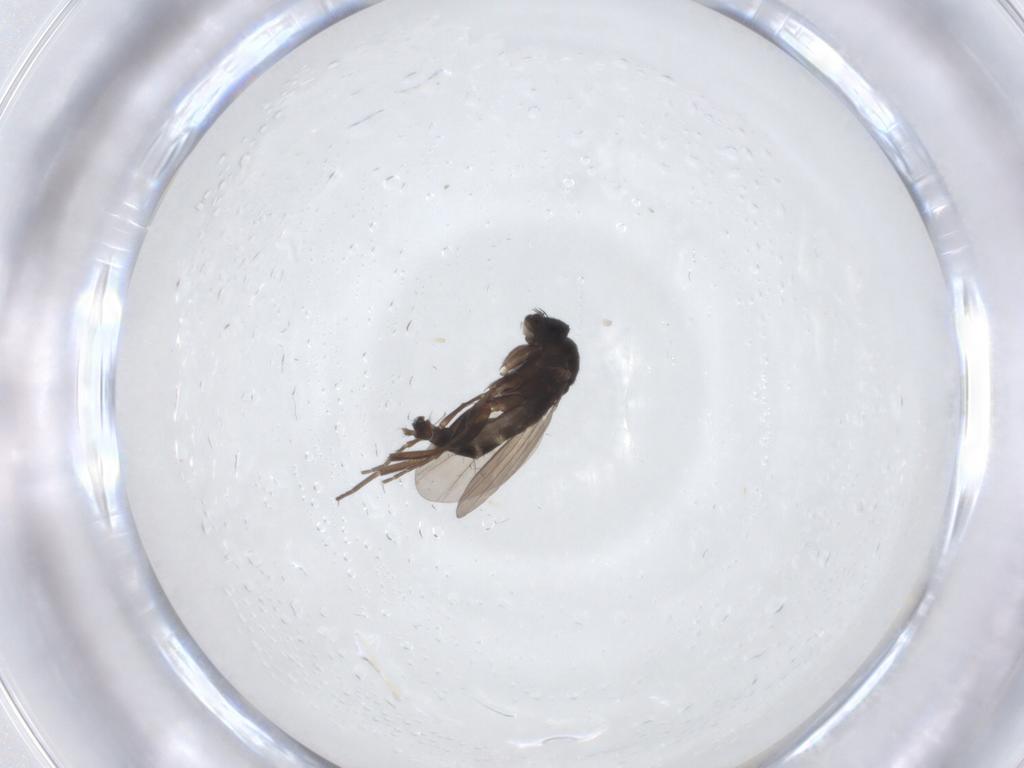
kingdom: Animalia
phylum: Arthropoda
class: Insecta
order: Diptera
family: Phoridae
